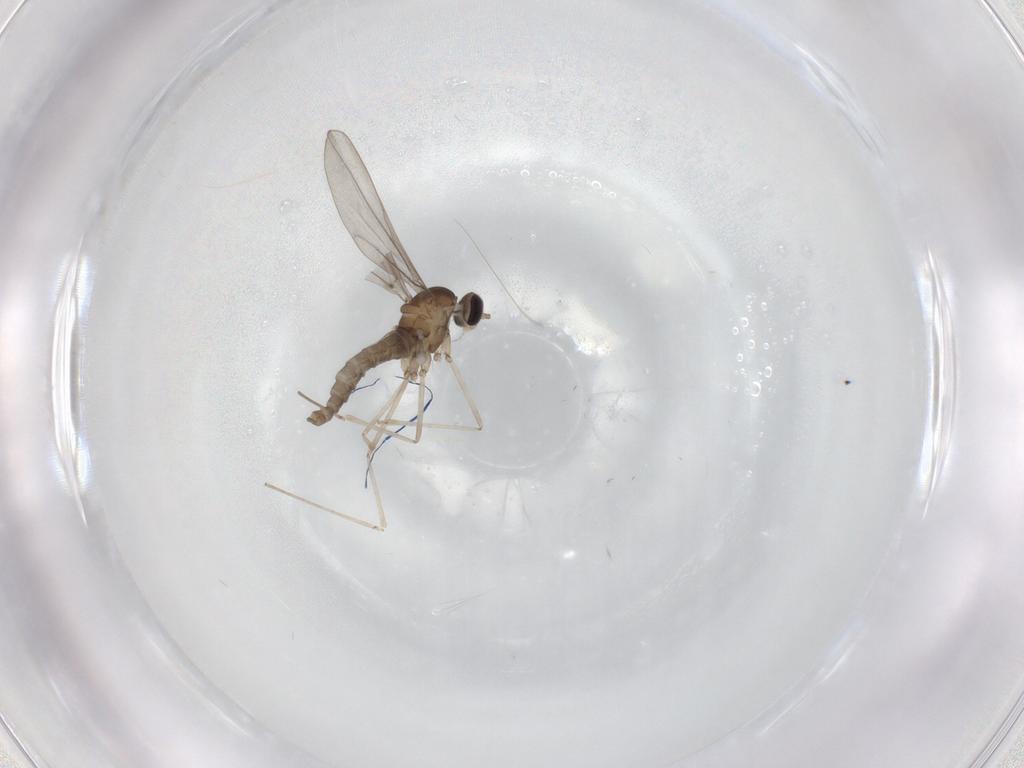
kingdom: Animalia
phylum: Arthropoda
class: Insecta
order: Diptera
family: Cecidomyiidae
